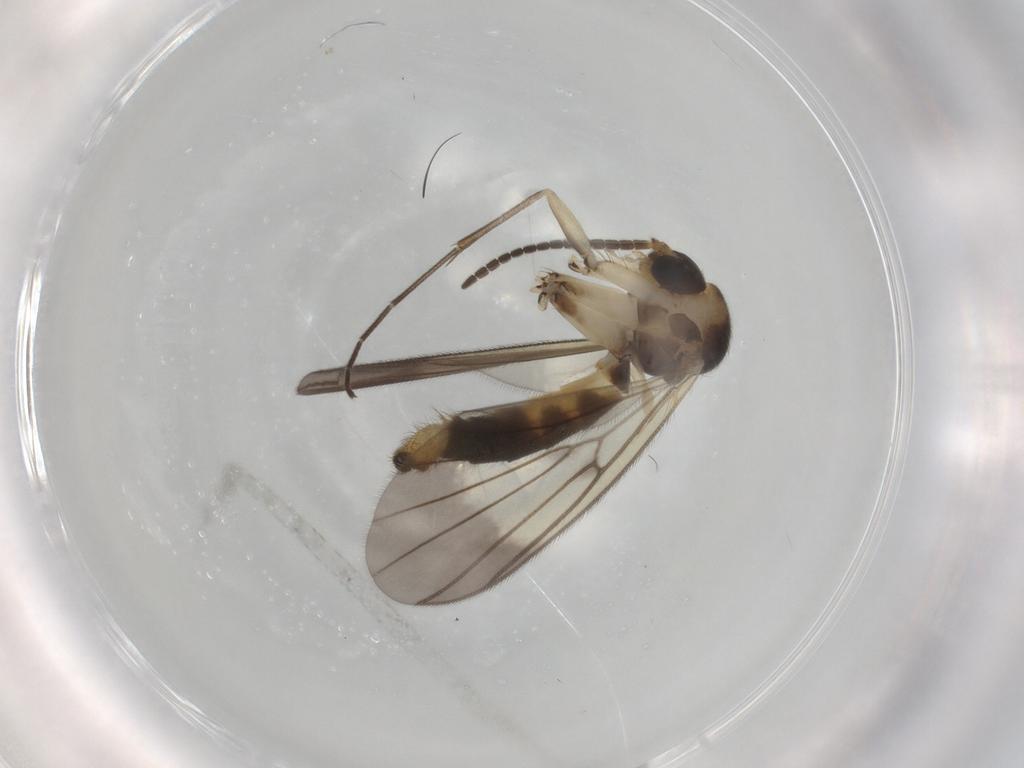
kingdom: Animalia
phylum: Arthropoda
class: Insecta
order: Diptera
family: Mycetophilidae
